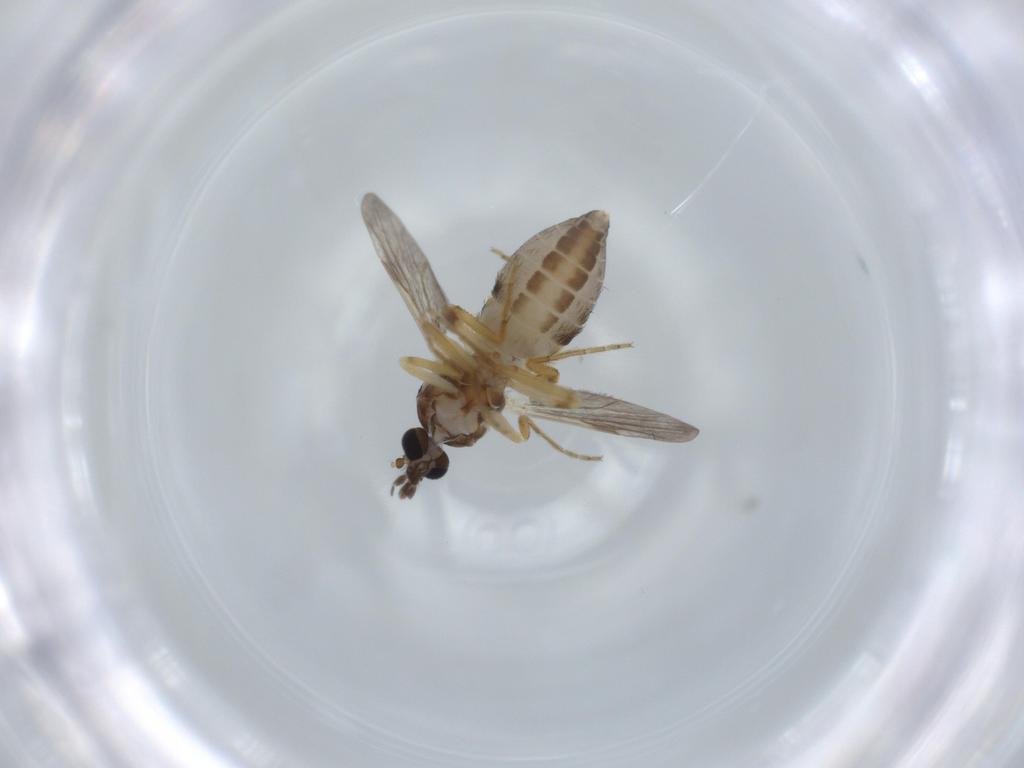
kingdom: Animalia
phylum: Arthropoda
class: Insecta
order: Diptera
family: Ceratopogonidae
